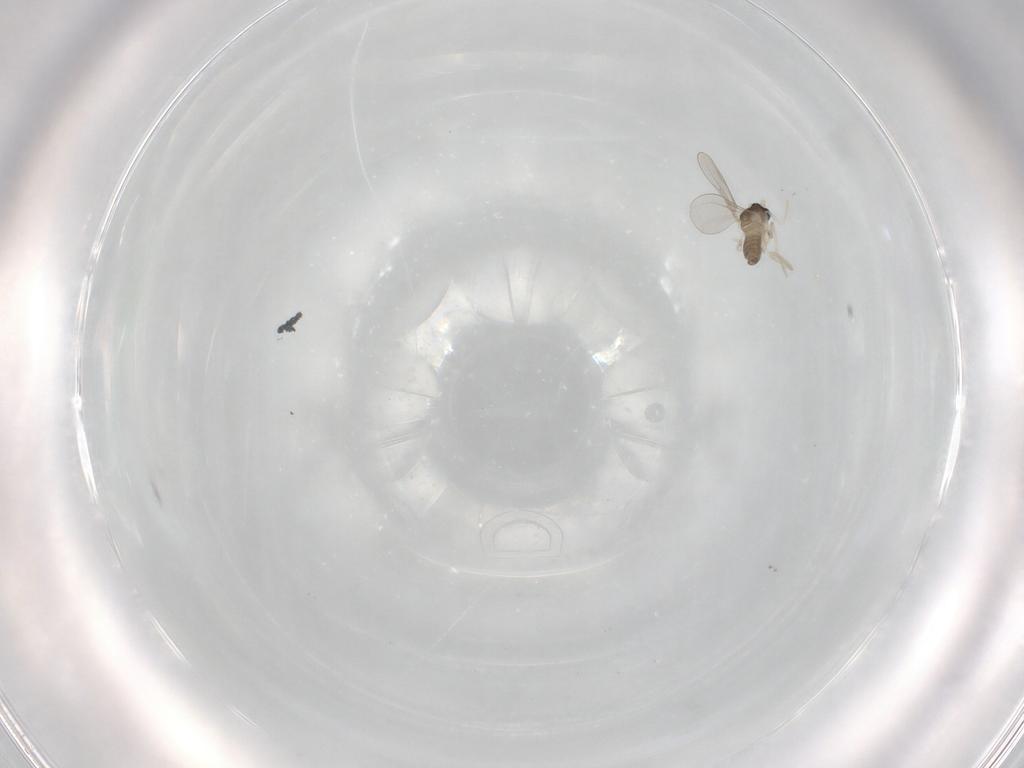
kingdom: Animalia
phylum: Arthropoda
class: Insecta
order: Diptera
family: Cecidomyiidae
